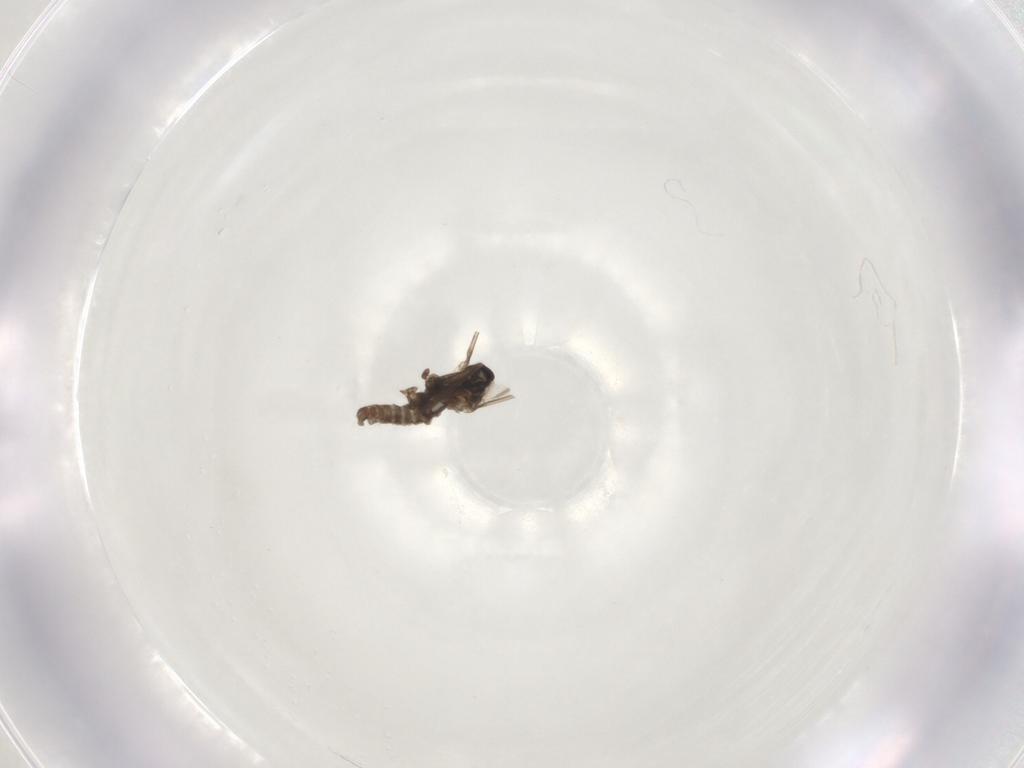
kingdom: Animalia
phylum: Arthropoda
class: Insecta
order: Diptera
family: Cecidomyiidae
